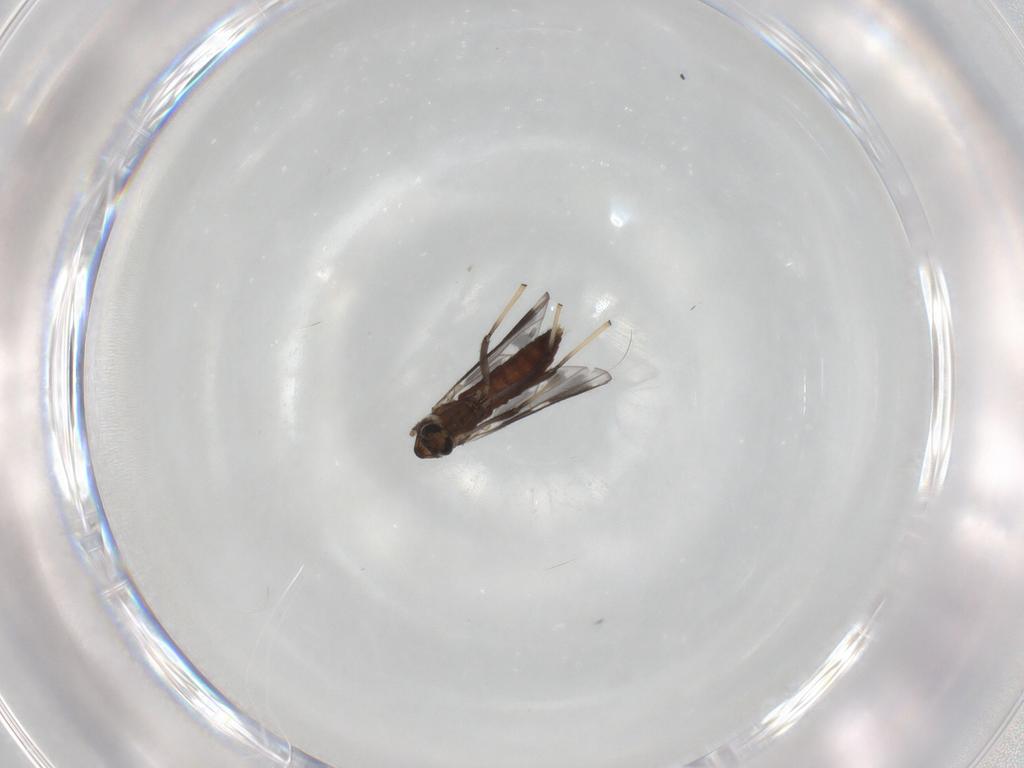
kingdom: Animalia
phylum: Arthropoda
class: Insecta
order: Diptera
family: Chironomidae
